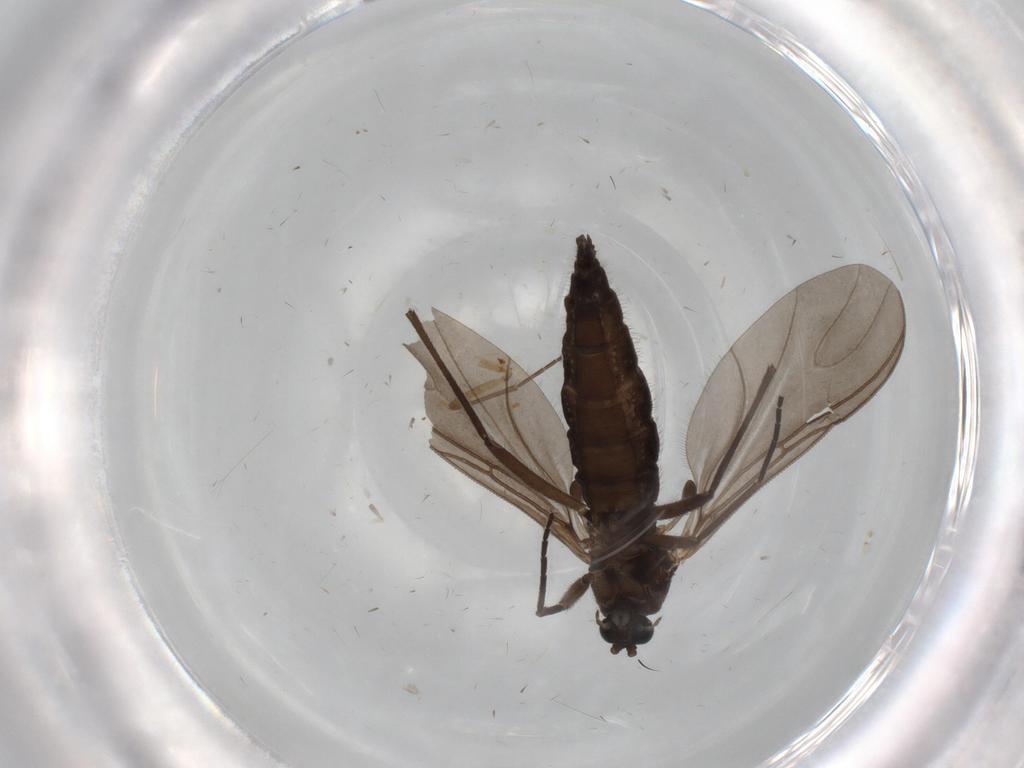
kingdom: Animalia
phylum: Arthropoda
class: Insecta
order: Diptera
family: Sciaridae
